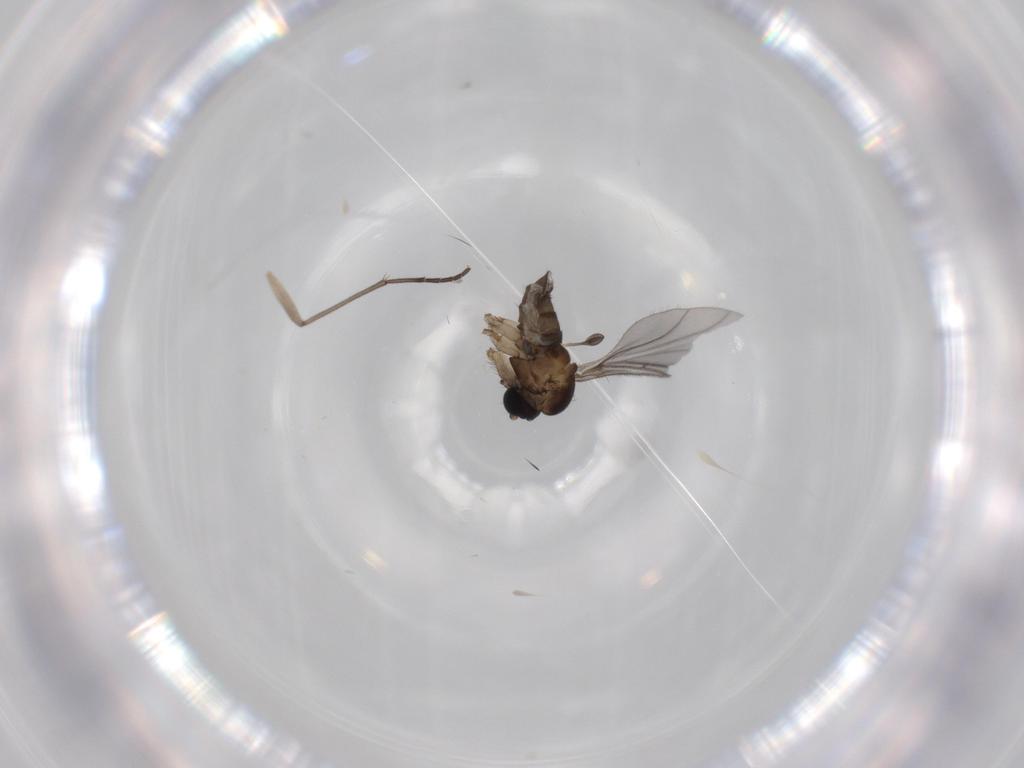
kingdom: Animalia
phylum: Arthropoda
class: Insecta
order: Diptera
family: Sciaridae
